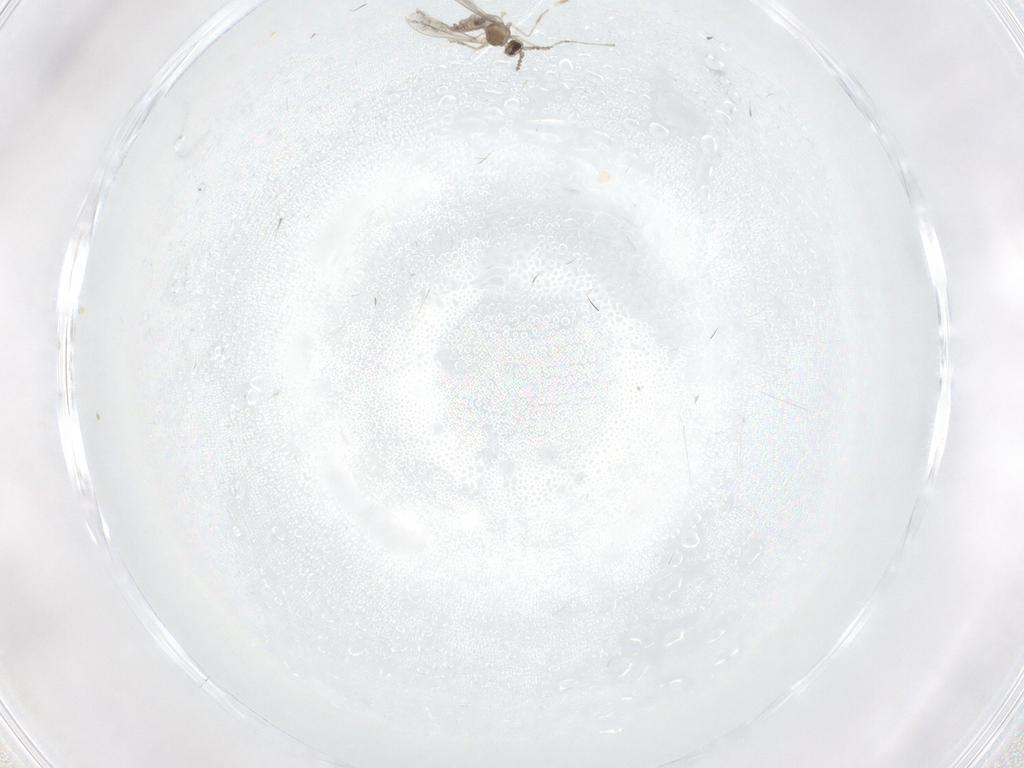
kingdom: Animalia
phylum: Arthropoda
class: Insecta
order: Diptera
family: Cecidomyiidae
